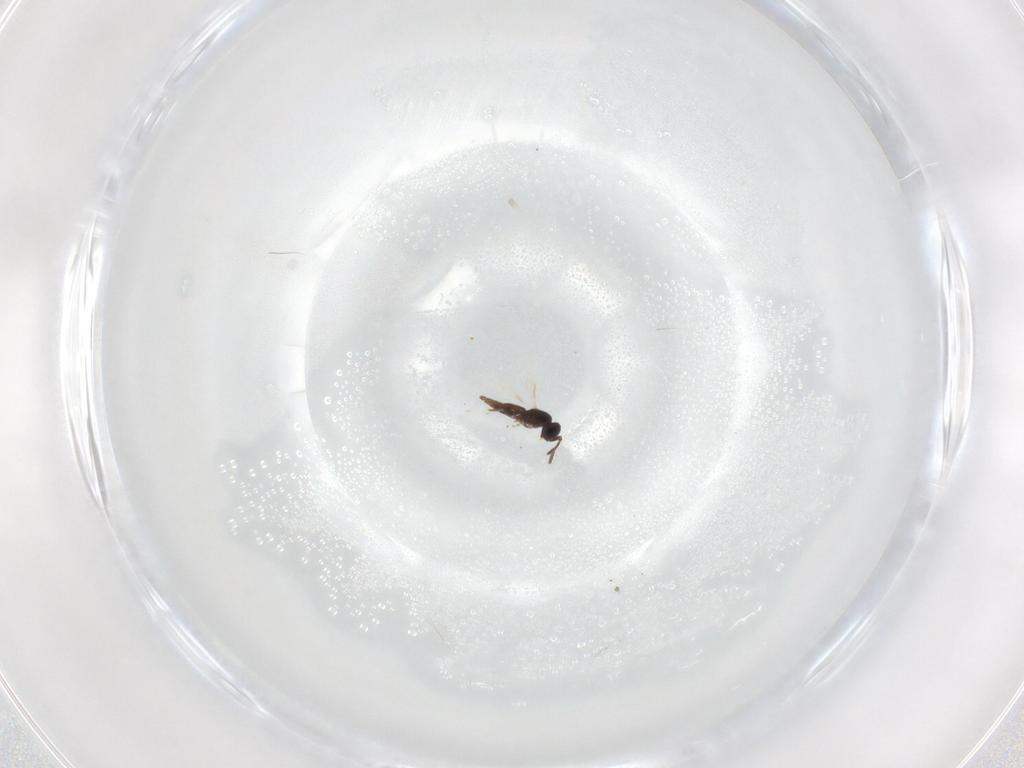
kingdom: Animalia
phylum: Arthropoda
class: Insecta
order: Hymenoptera
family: Scelionidae
